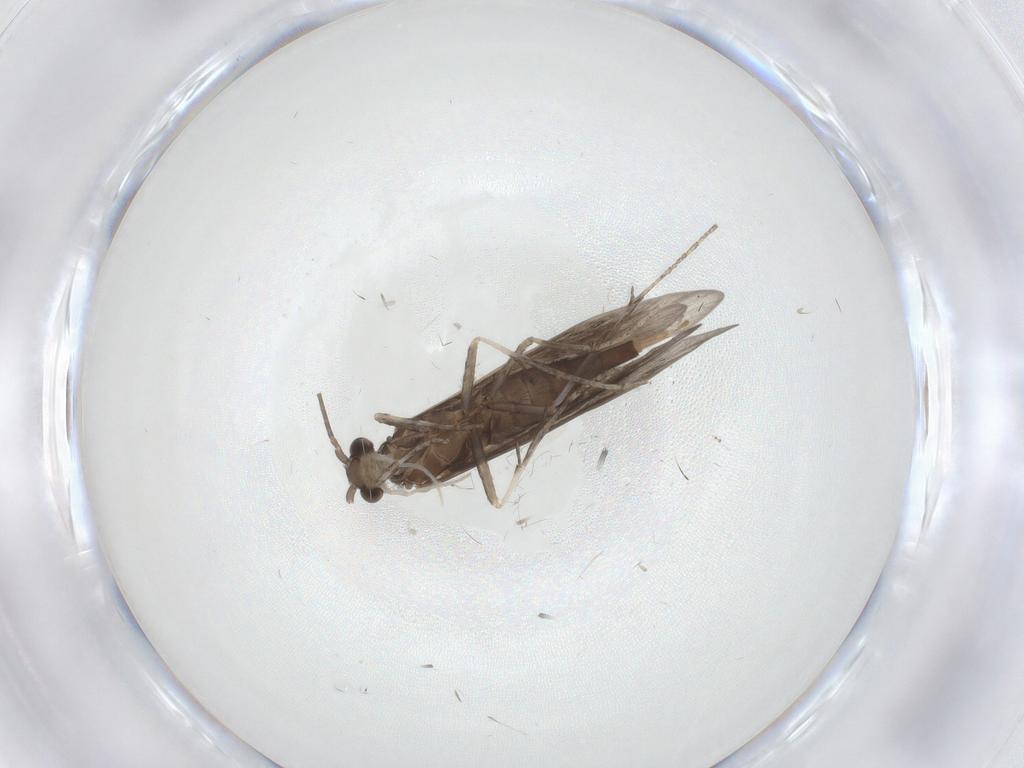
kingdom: Animalia
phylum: Arthropoda
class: Insecta
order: Trichoptera
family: Xiphocentronidae
